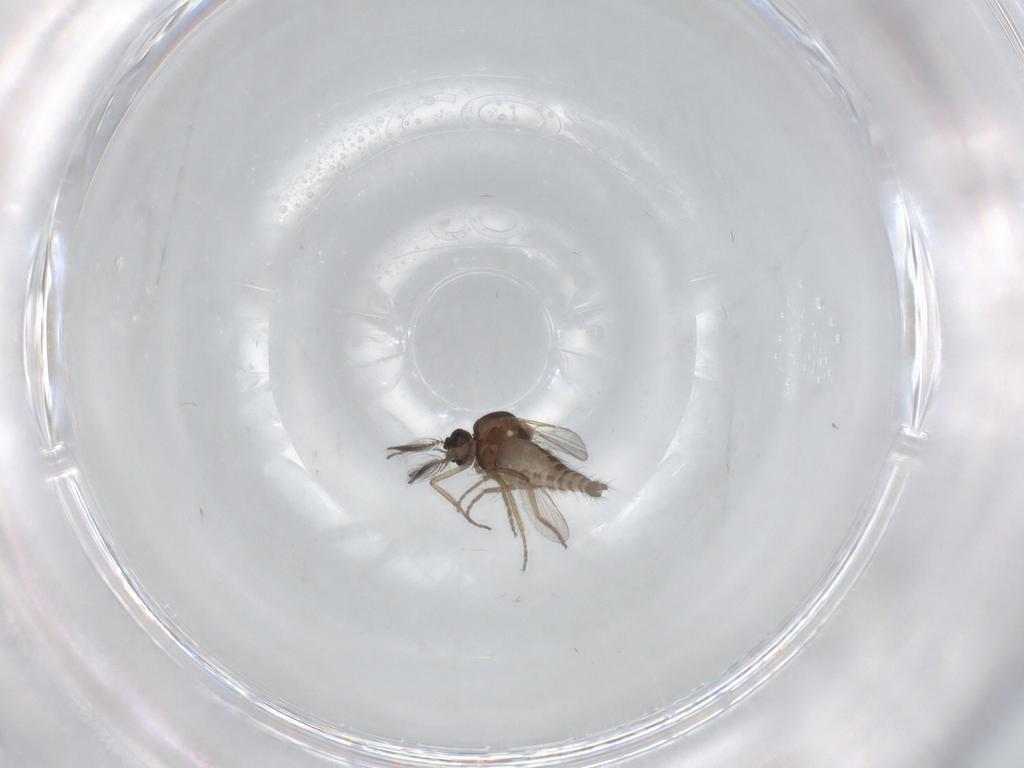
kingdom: Animalia
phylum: Arthropoda
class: Insecta
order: Diptera
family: Ceratopogonidae
